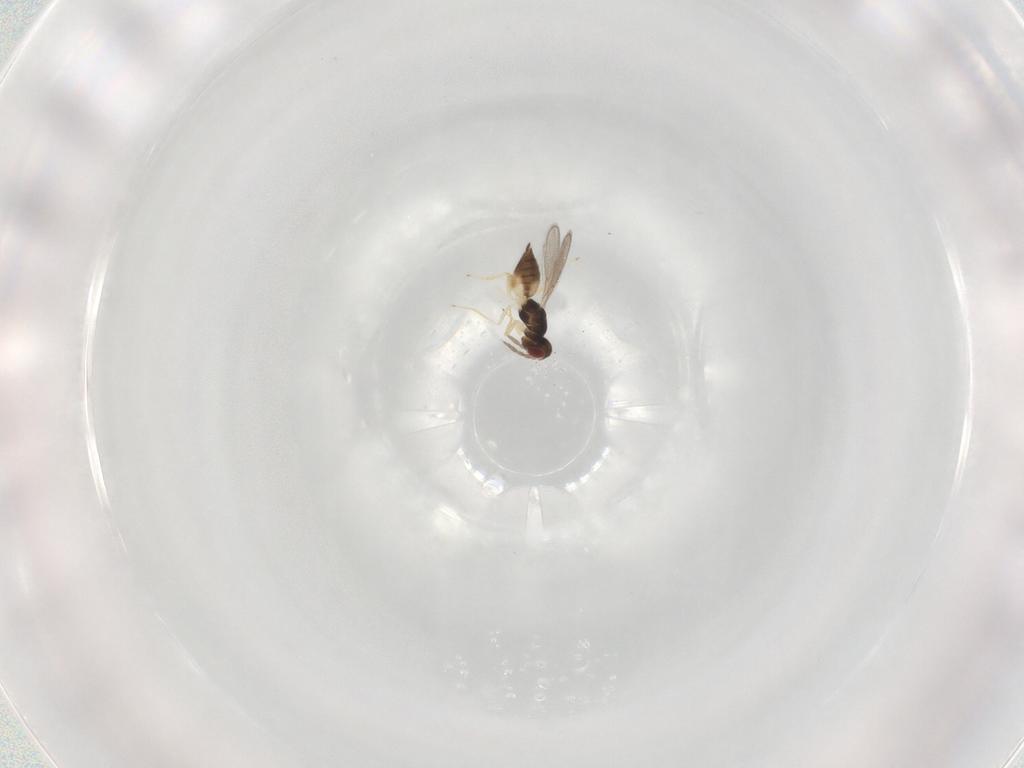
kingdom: Animalia
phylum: Arthropoda
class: Insecta
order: Hymenoptera
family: Eulophidae
